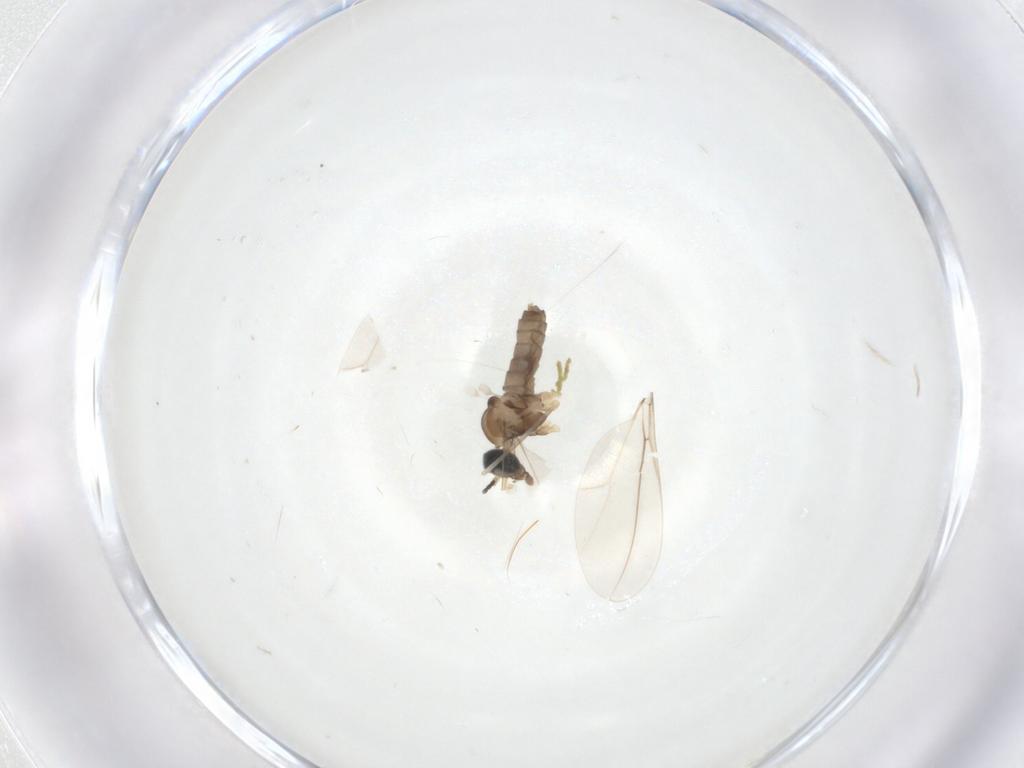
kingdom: Animalia
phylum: Arthropoda
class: Insecta
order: Diptera
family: Cecidomyiidae
